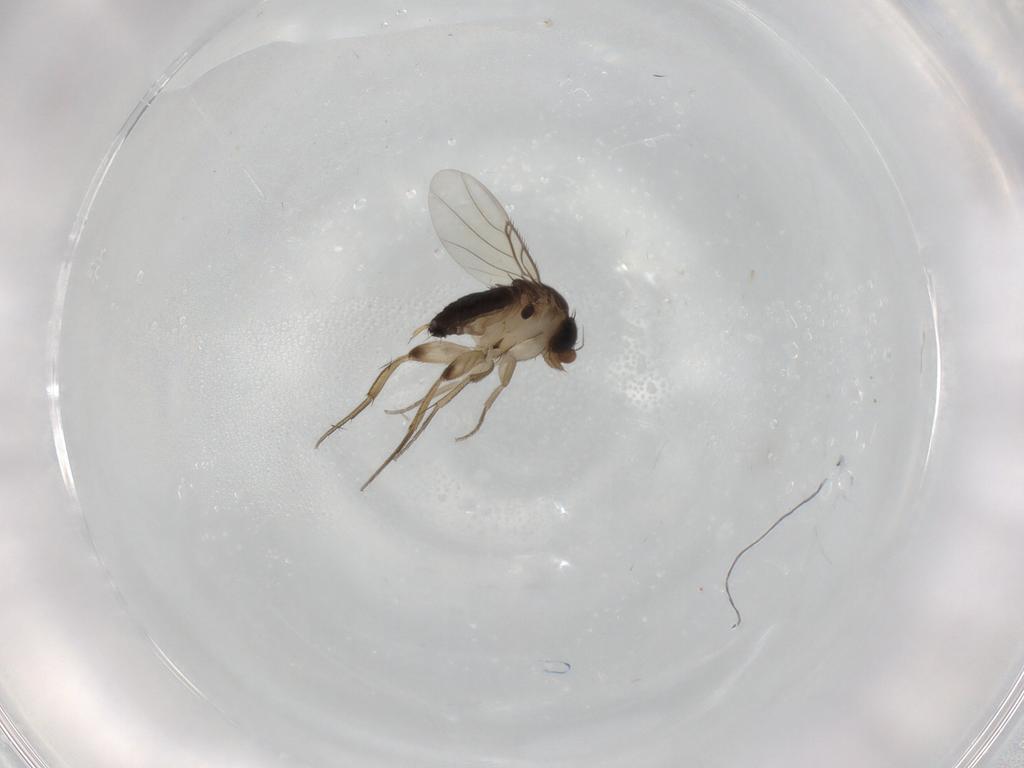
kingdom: Animalia
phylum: Arthropoda
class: Insecta
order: Diptera
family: Phoridae
